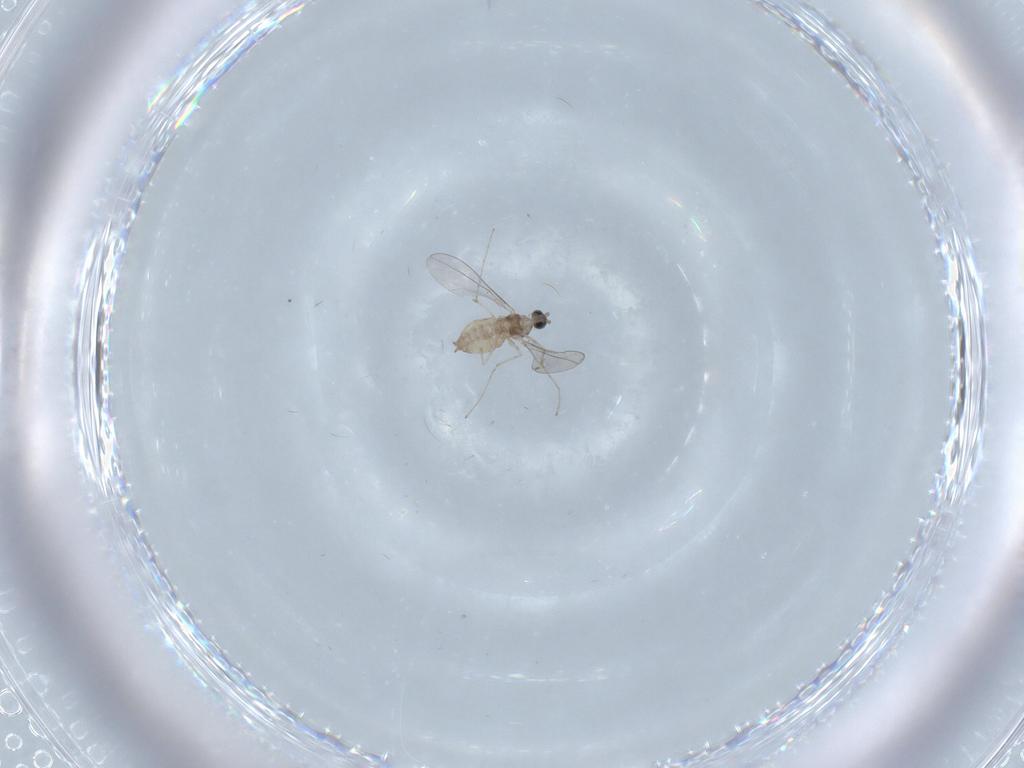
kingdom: Animalia
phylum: Arthropoda
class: Insecta
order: Diptera
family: Cecidomyiidae
